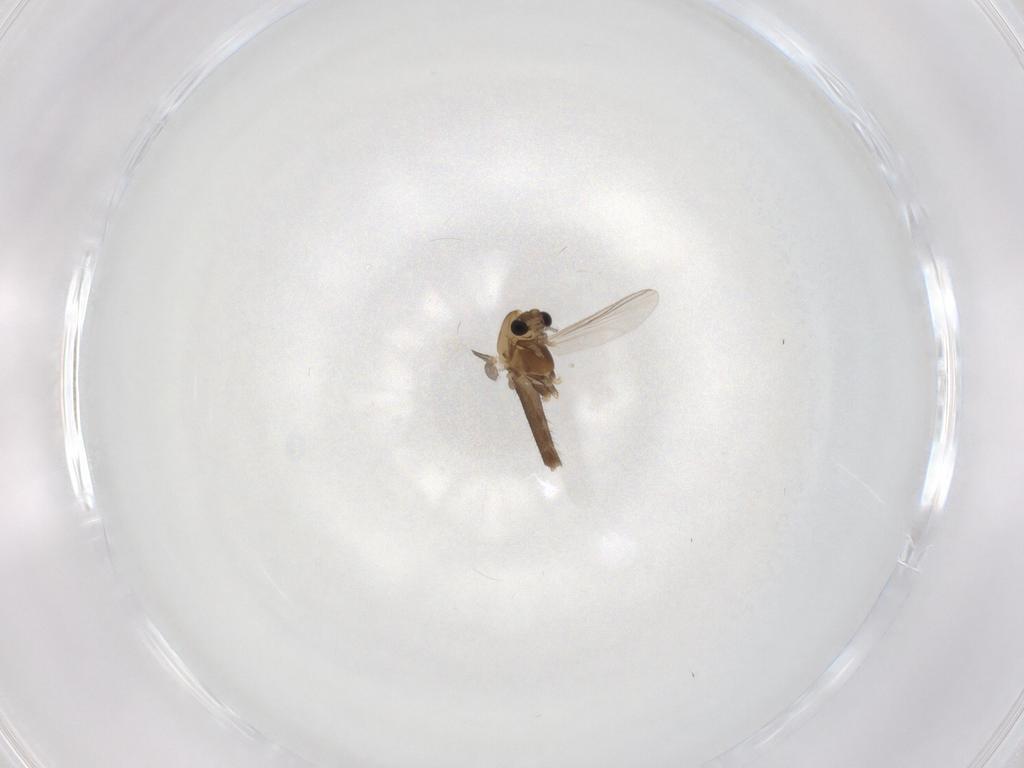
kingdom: Animalia
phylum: Arthropoda
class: Insecta
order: Diptera
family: Chironomidae
